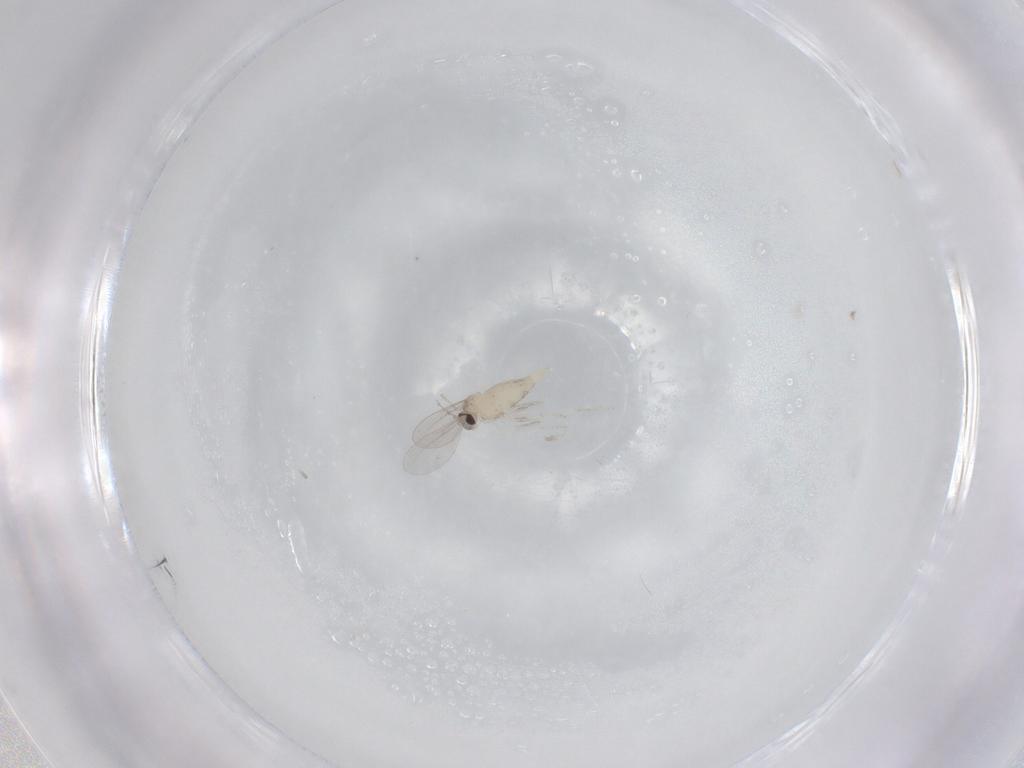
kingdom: Animalia
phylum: Arthropoda
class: Insecta
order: Diptera
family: Cecidomyiidae
